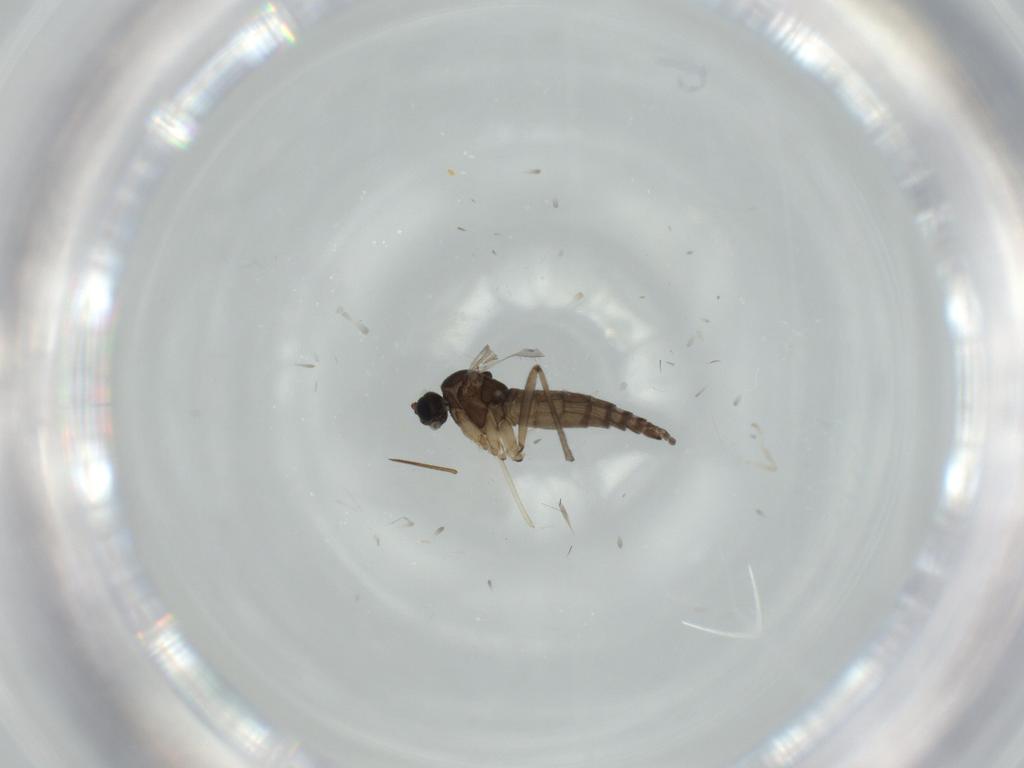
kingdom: Animalia
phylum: Arthropoda
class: Insecta
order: Diptera
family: Sciaridae
